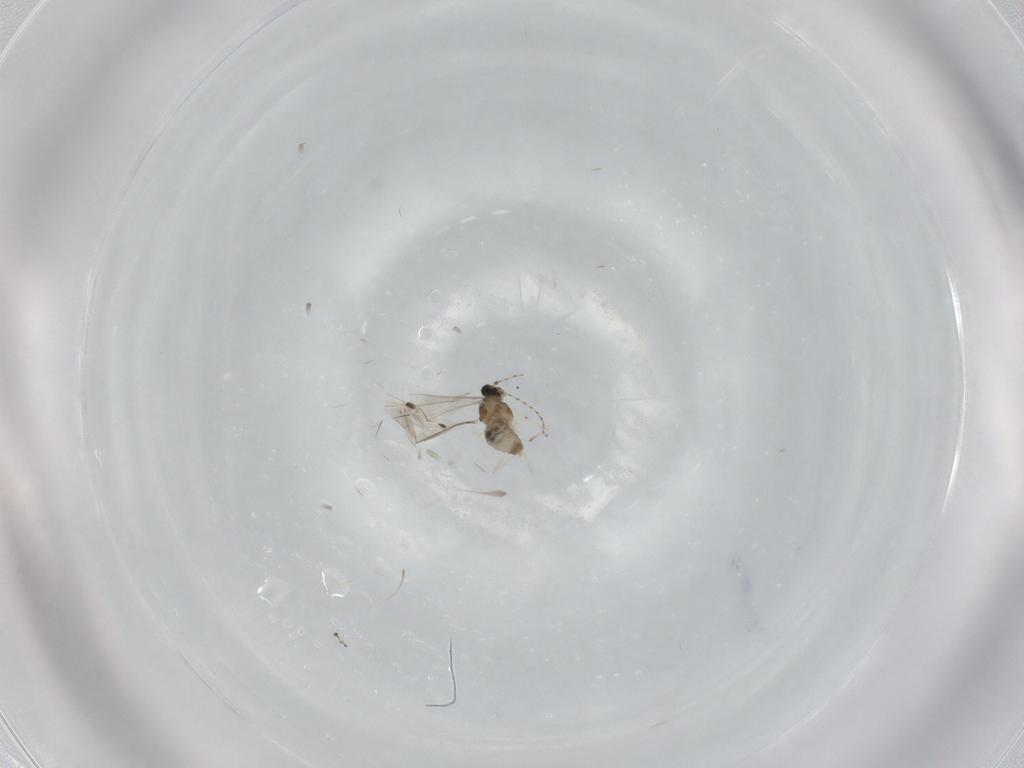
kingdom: Animalia
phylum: Arthropoda
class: Insecta
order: Diptera
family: Cecidomyiidae
